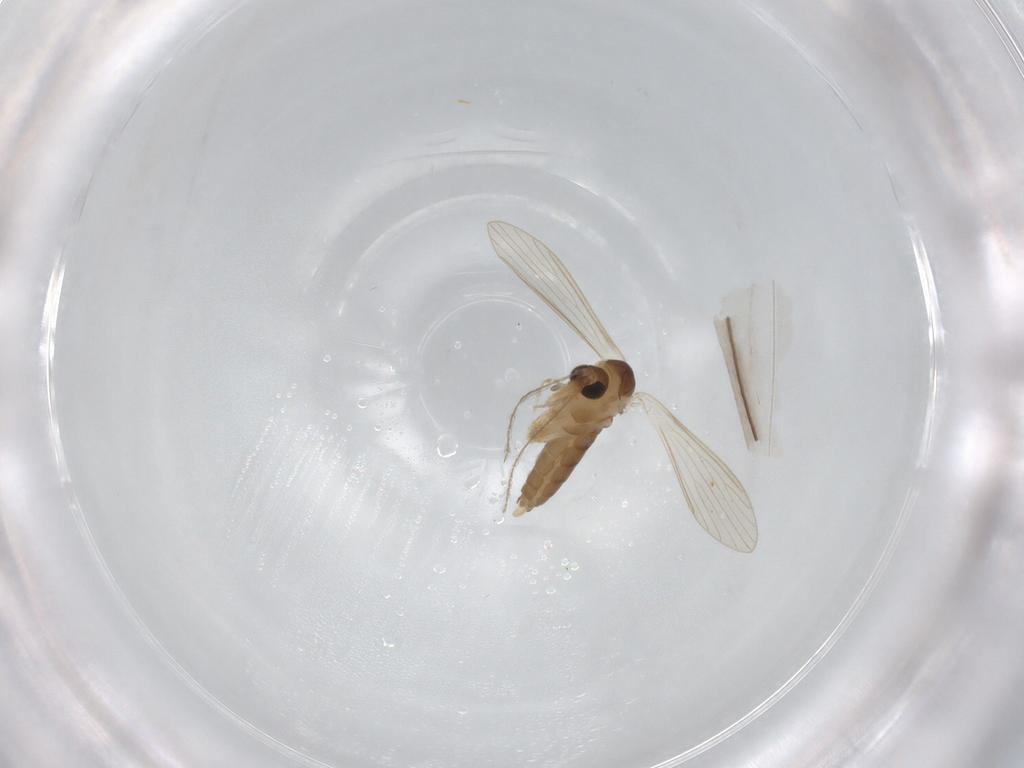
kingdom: Animalia
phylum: Arthropoda
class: Insecta
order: Diptera
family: Psychodidae
